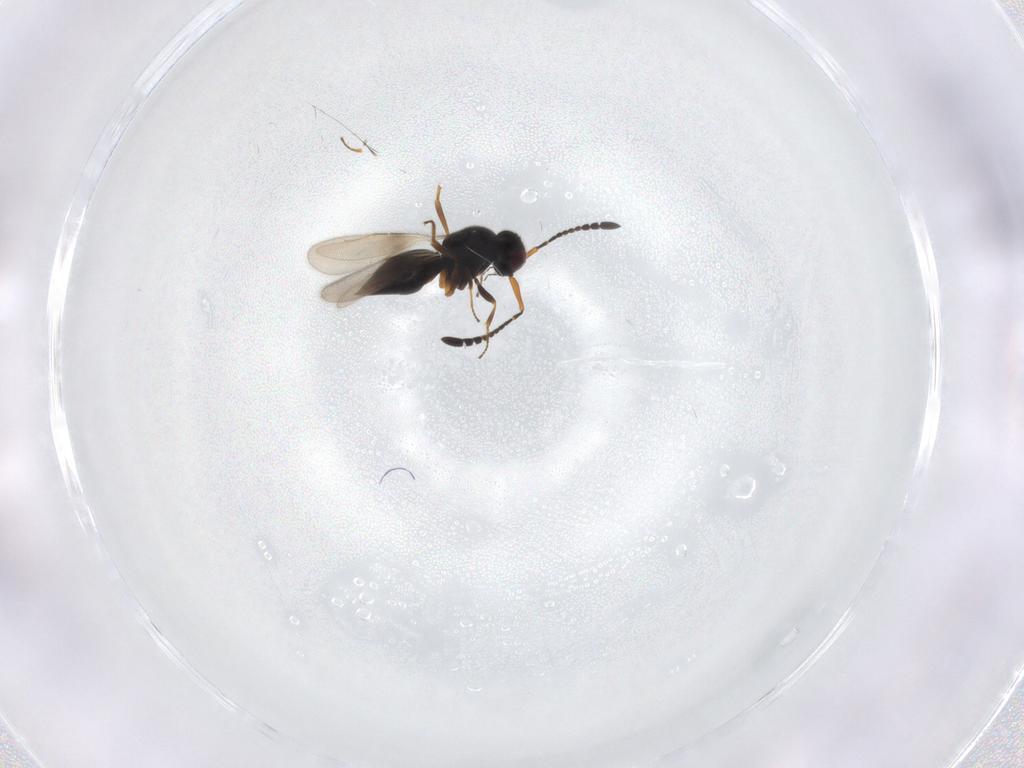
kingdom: Animalia
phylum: Arthropoda
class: Insecta
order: Hymenoptera
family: Ceraphronidae
